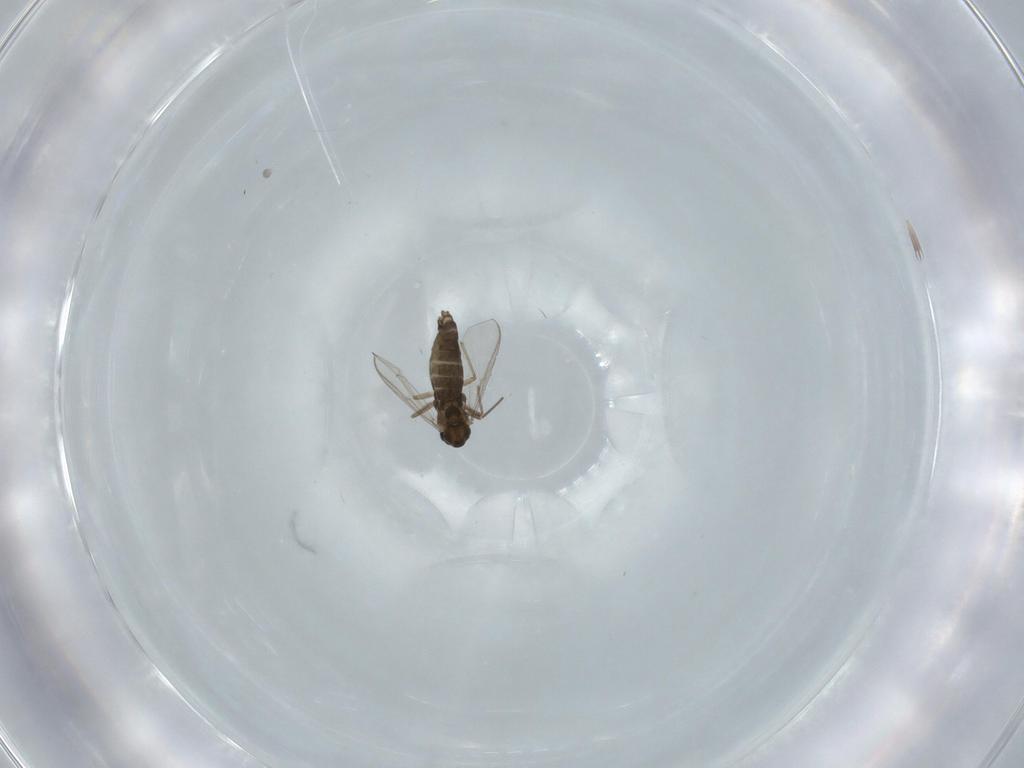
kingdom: Animalia
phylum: Arthropoda
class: Insecta
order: Diptera
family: Chironomidae
